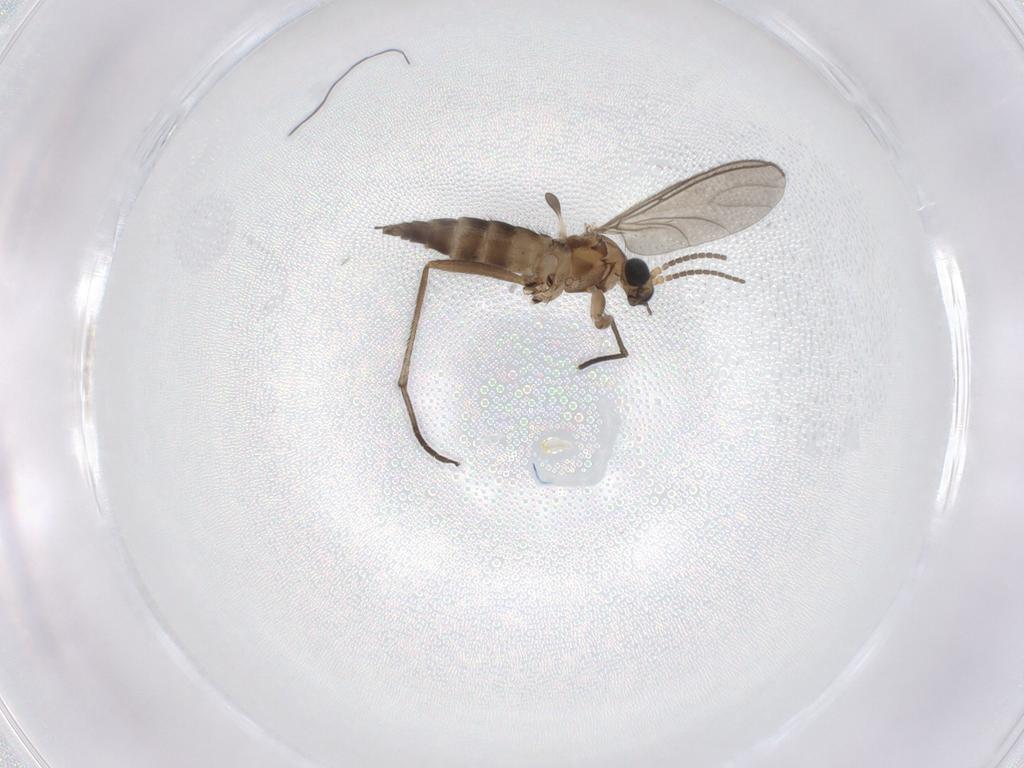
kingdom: Animalia
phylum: Arthropoda
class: Insecta
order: Diptera
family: Sciaridae
